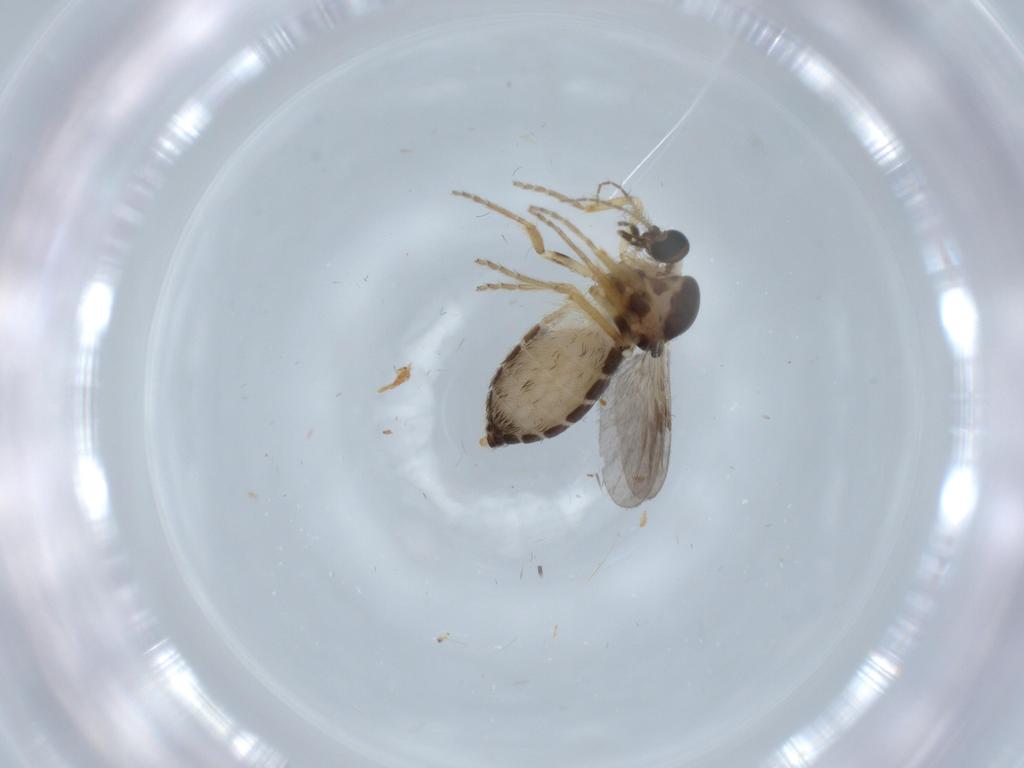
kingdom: Animalia
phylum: Arthropoda
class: Insecta
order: Diptera
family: Ceratopogonidae
